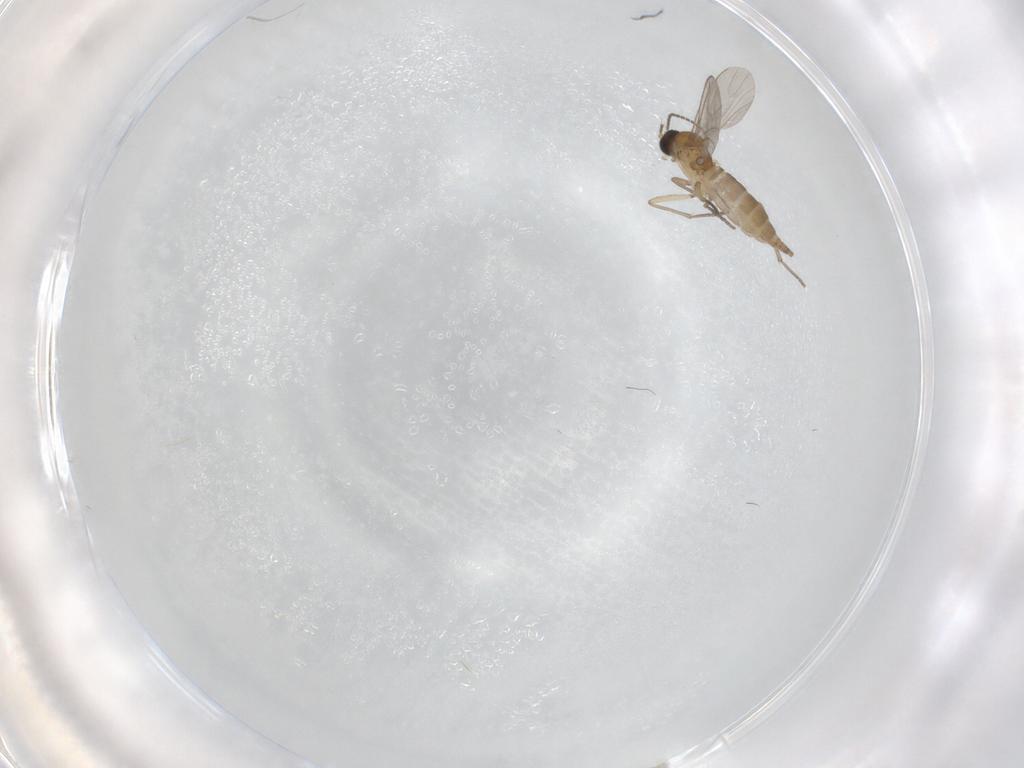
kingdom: Animalia
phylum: Arthropoda
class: Insecta
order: Diptera
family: Sciaridae
